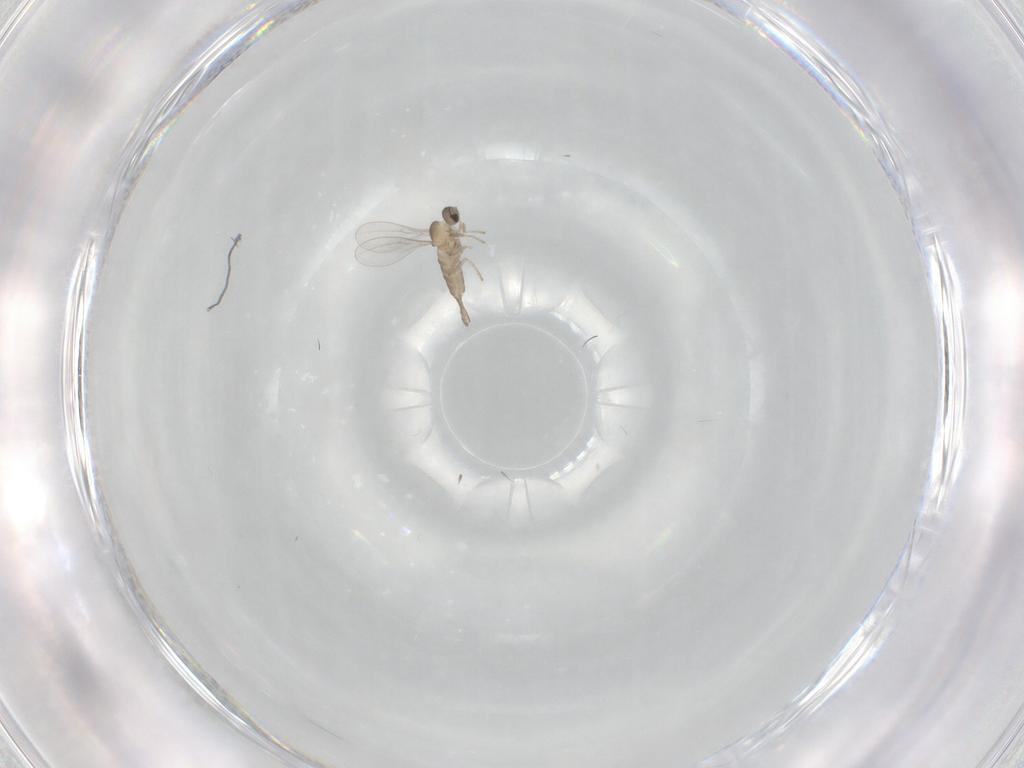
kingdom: Animalia
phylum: Arthropoda
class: Insecta
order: Diptera
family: Cecidomyiidae
